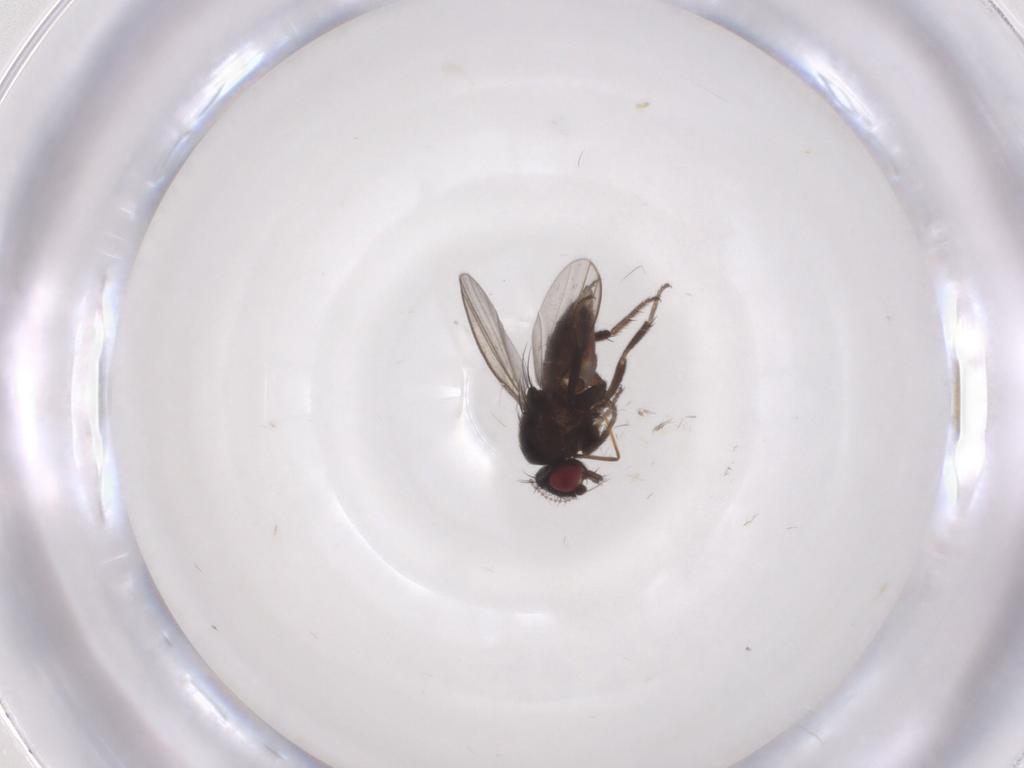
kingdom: Animalia
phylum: Arthropoda
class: Insecta
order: Diptera
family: Milichiidae
